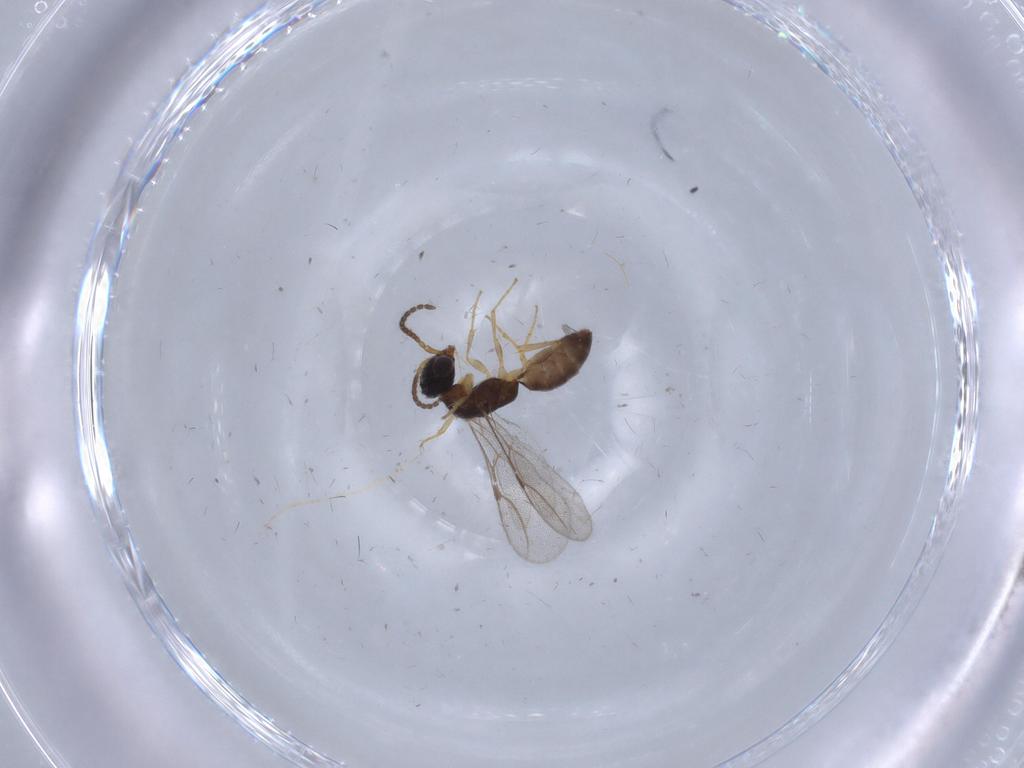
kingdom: Animalia
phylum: Arthropoda
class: Insecta
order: Hymenoptera
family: Bethylidae
